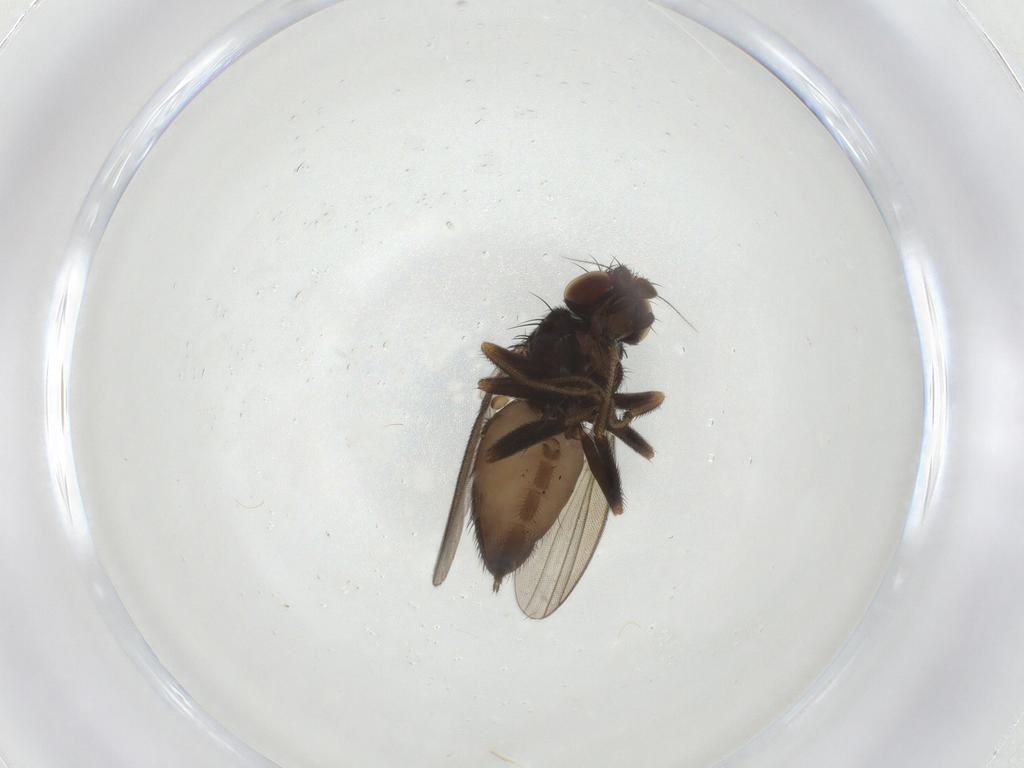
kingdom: Animalia
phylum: Arthropoda
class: Insecta
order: Diptera
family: Milichiidae
